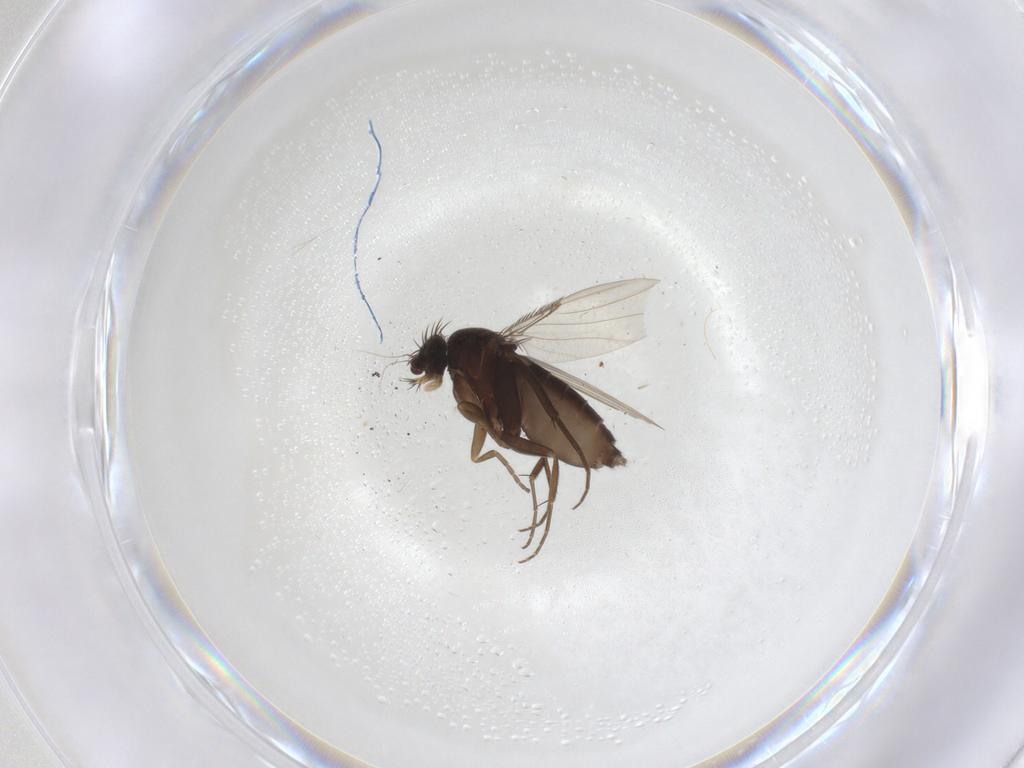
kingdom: Animalia
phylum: Arthropoda
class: Insecta
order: Diptera
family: Phoridae
